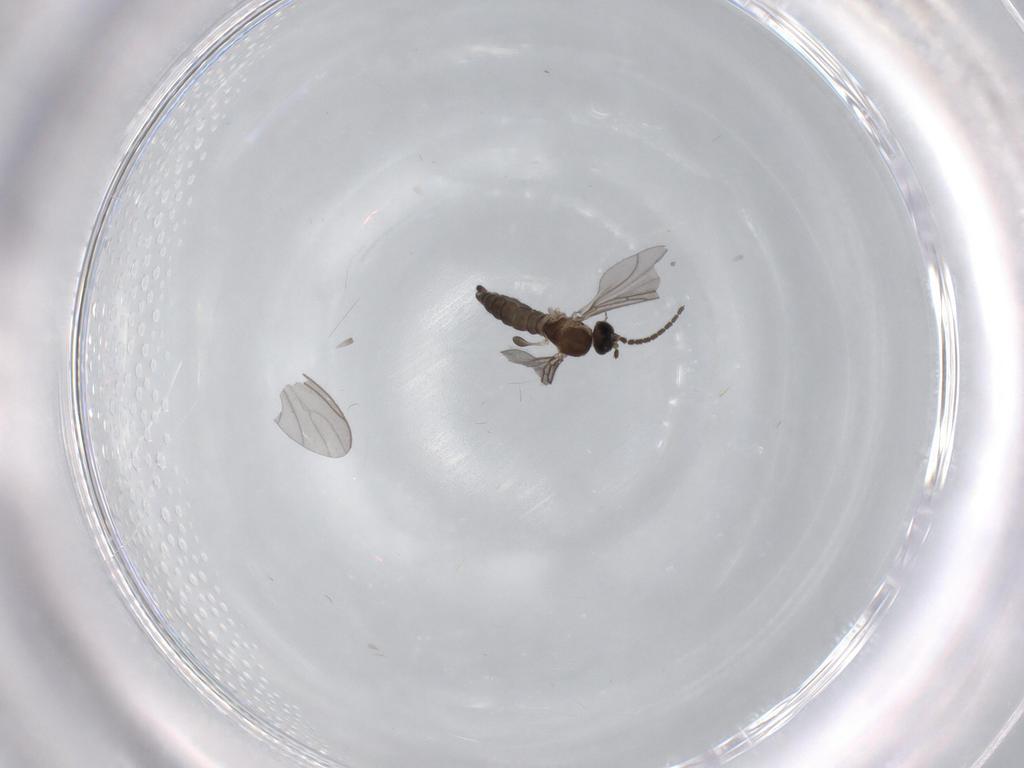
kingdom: Animalia
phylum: Arthropoda
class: Insecta
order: Diptera
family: Sciaridae
